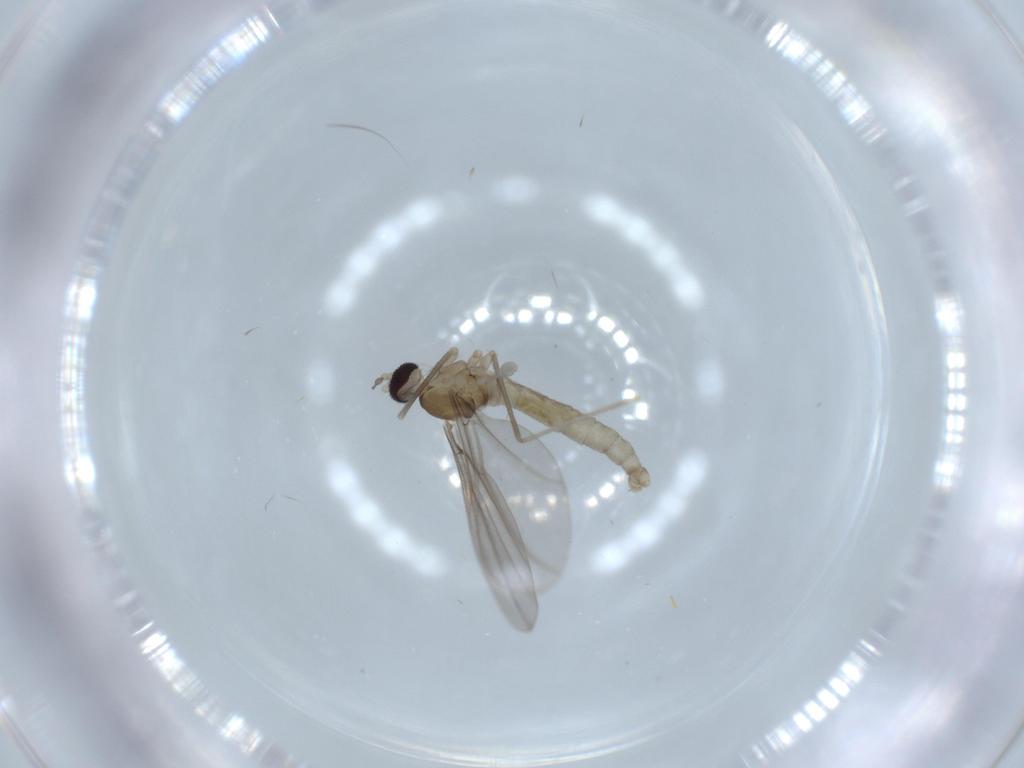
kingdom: Animalia
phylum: Arthropoda
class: Insecta
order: Diptera
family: Cecidomyiidae
